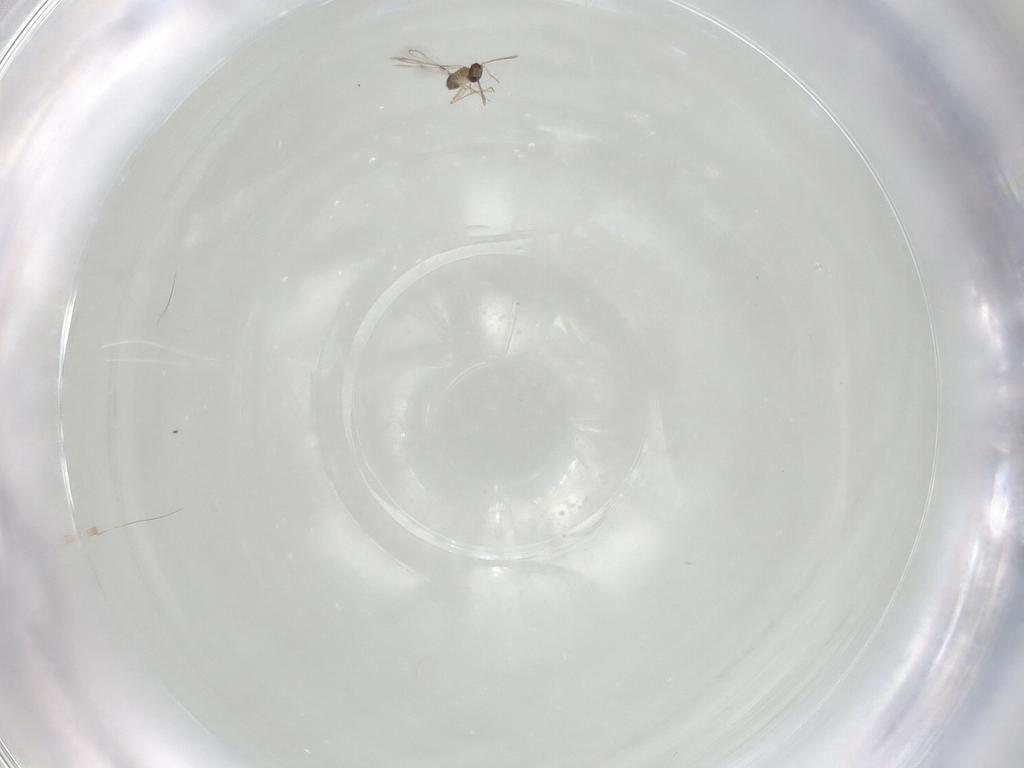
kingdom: Animalia
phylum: Arthropoda
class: Insecta
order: Hymenoptera
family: Mymaridae
